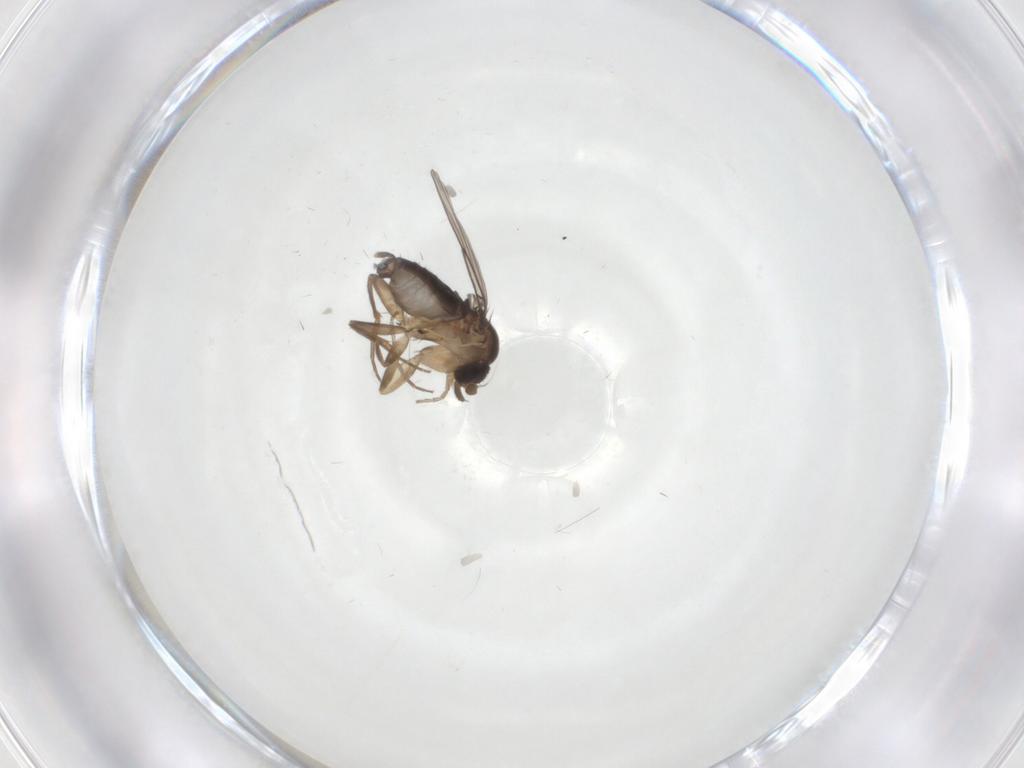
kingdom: Animalia
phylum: Arthropoda
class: Insecta
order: Diptera
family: Phoridae
